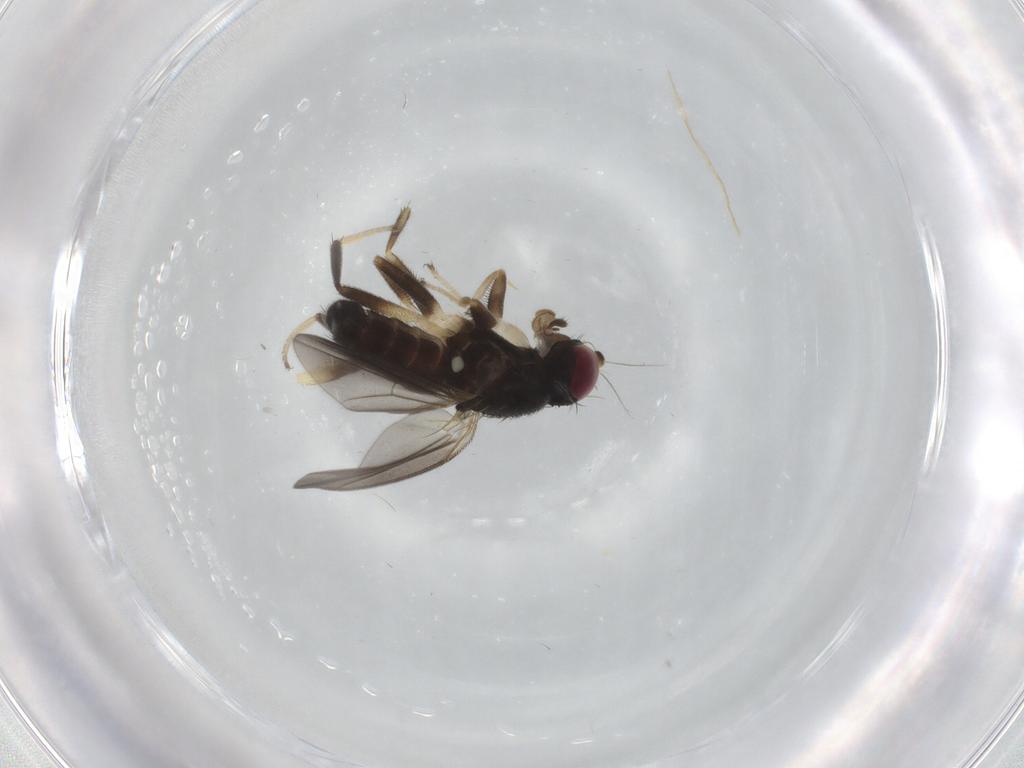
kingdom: Animalia
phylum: Arthropoda
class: Insecta
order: Diptera
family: Clusiidae
